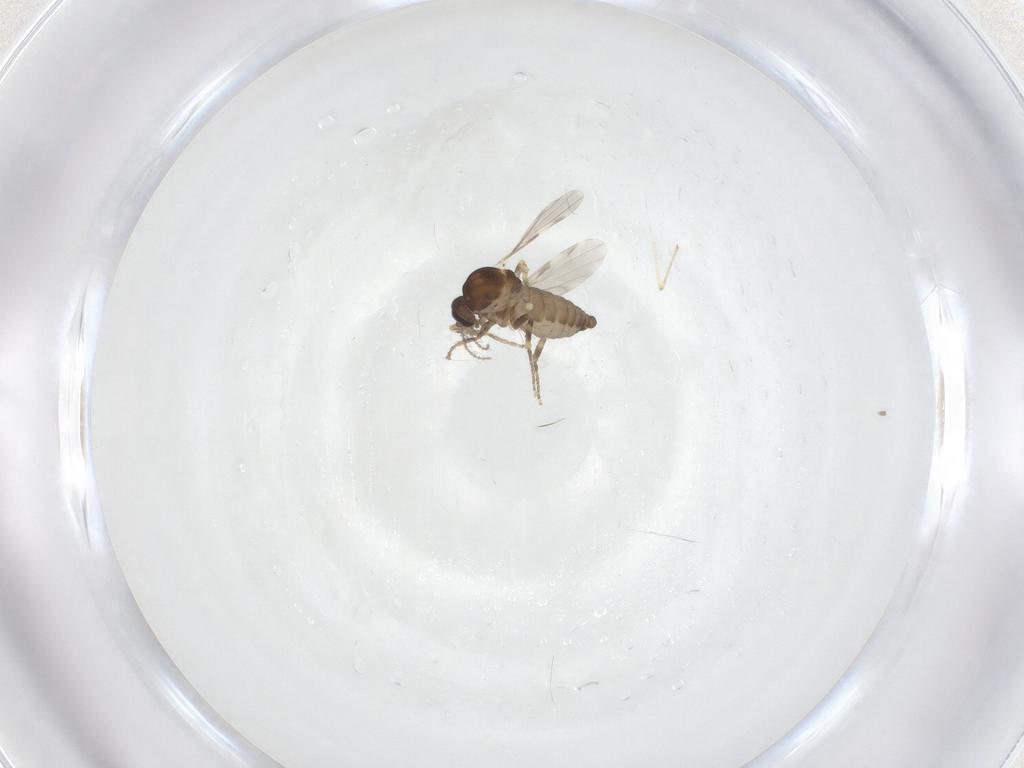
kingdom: Animalia
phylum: Arthropoda
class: Insecta
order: Diptera
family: Ceratopogonidae
